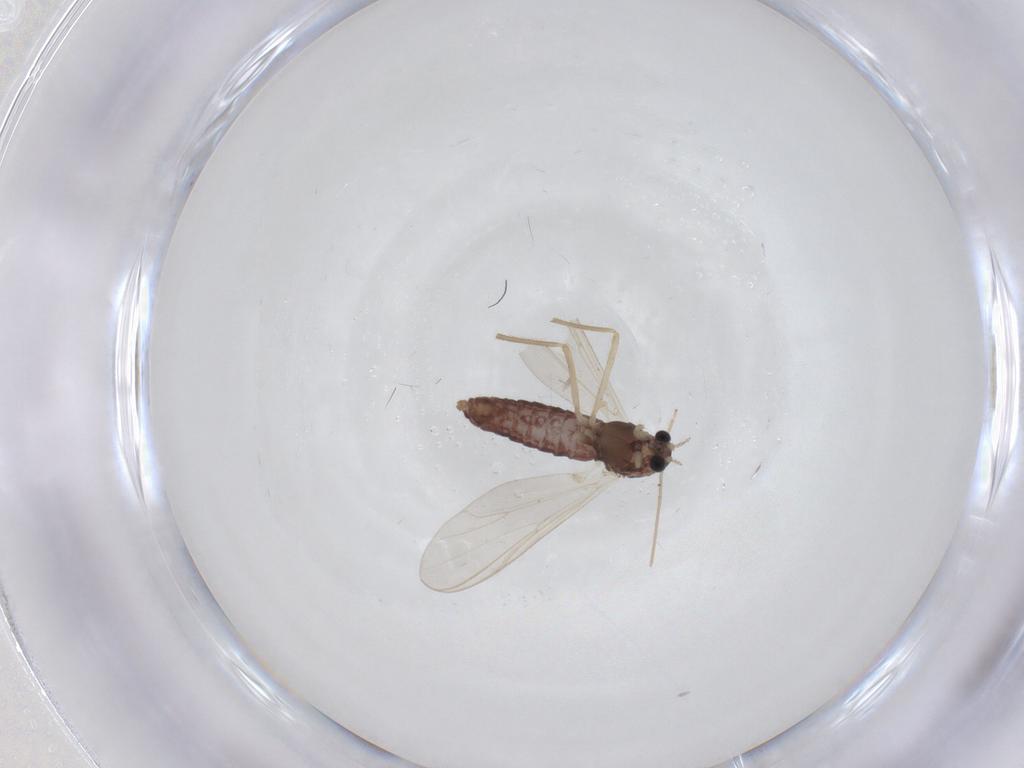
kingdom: Animalia
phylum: Arthropoda
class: Insecta
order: Diptera
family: Chironomidae
